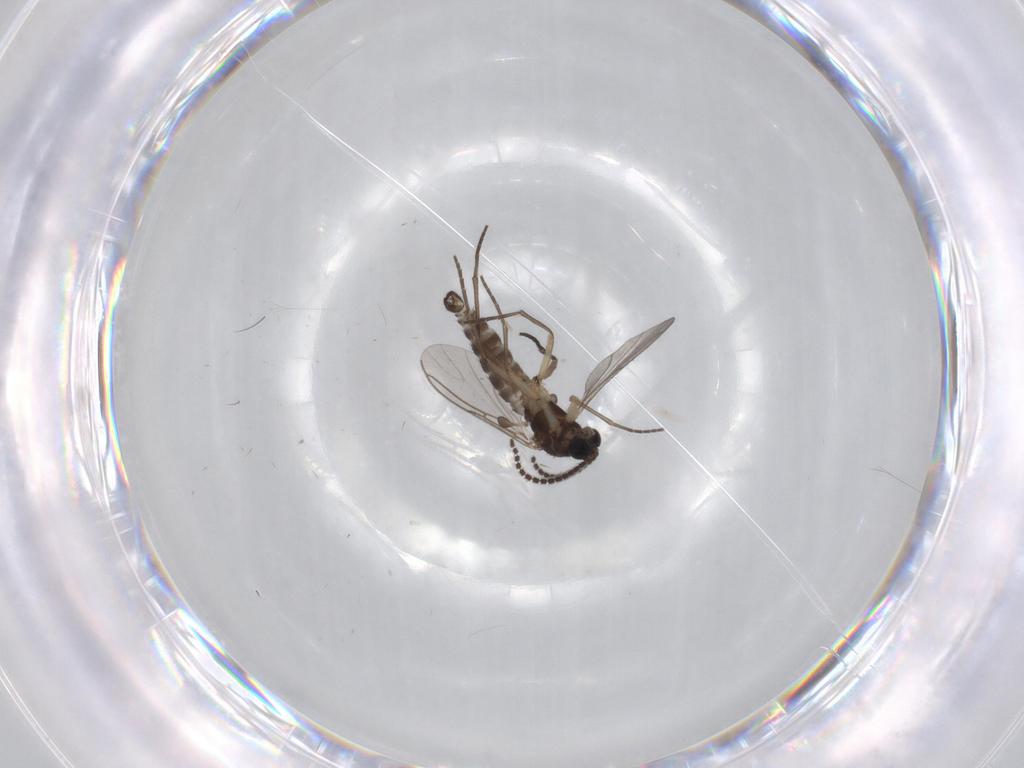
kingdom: Animalia
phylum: Arthropoda
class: Insecta
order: Diptera
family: Sciaridae
